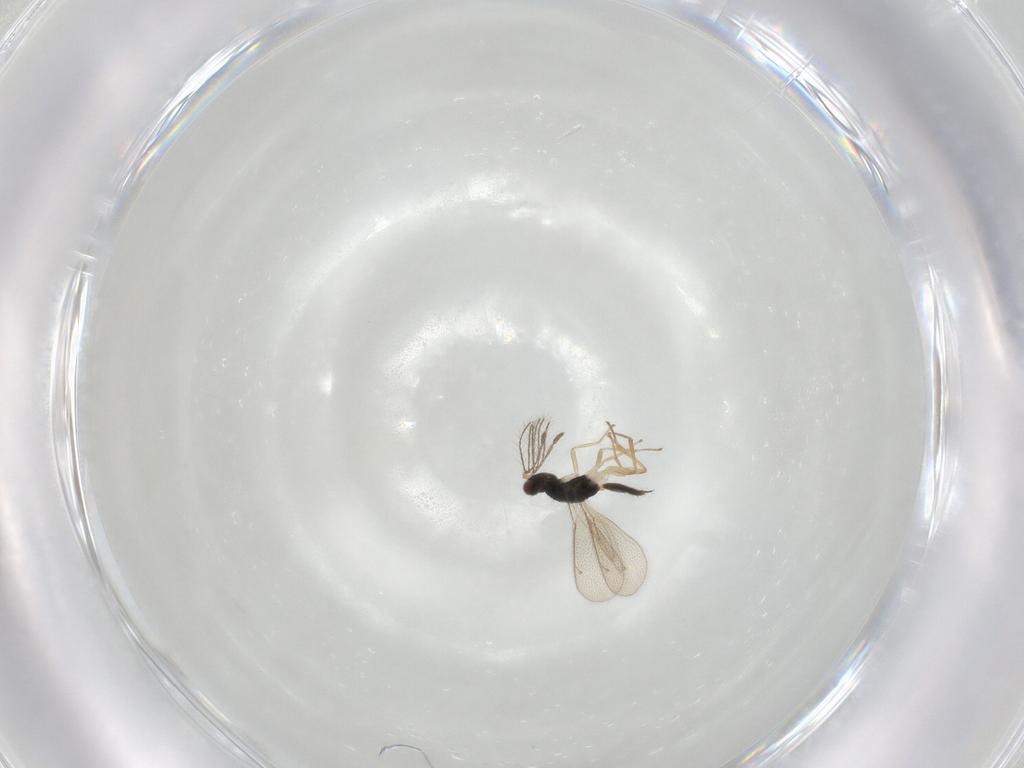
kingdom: Animalia
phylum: Arthropoda
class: Insecta
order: Hymenoptera
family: Eulophidae
